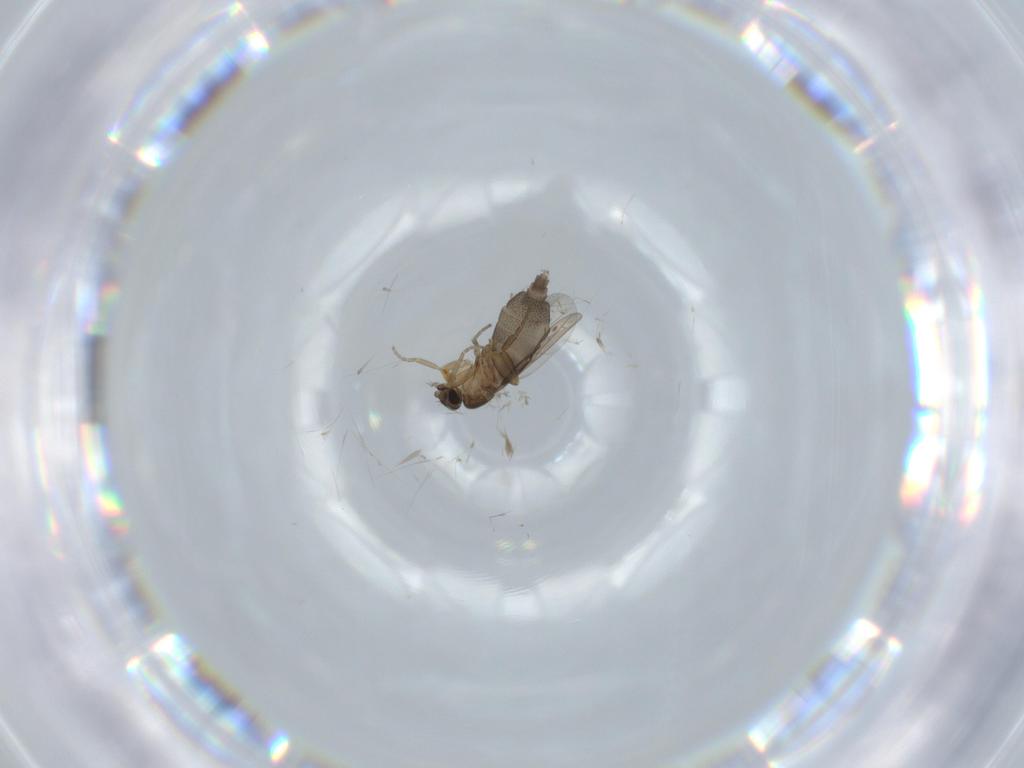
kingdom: Animalia
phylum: Arthropoda
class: Insecta
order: Diptera
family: Phoridae
